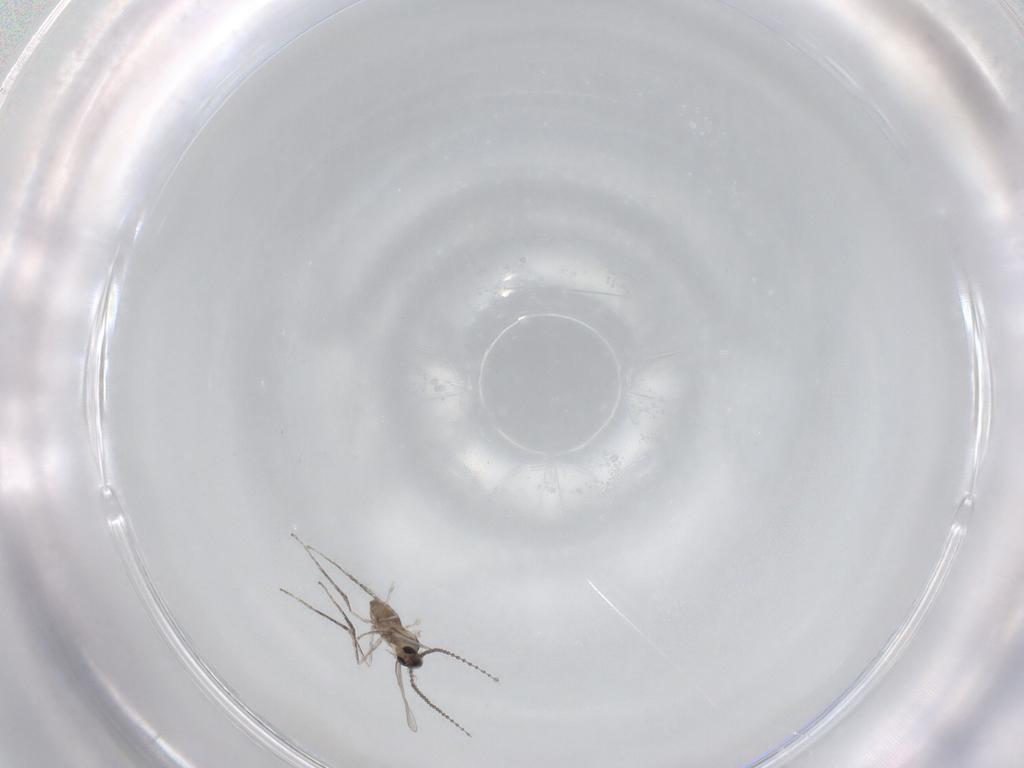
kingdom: Animalia
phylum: Arthropoda
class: Insecta
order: Diptera
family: Cecidomyiidae
